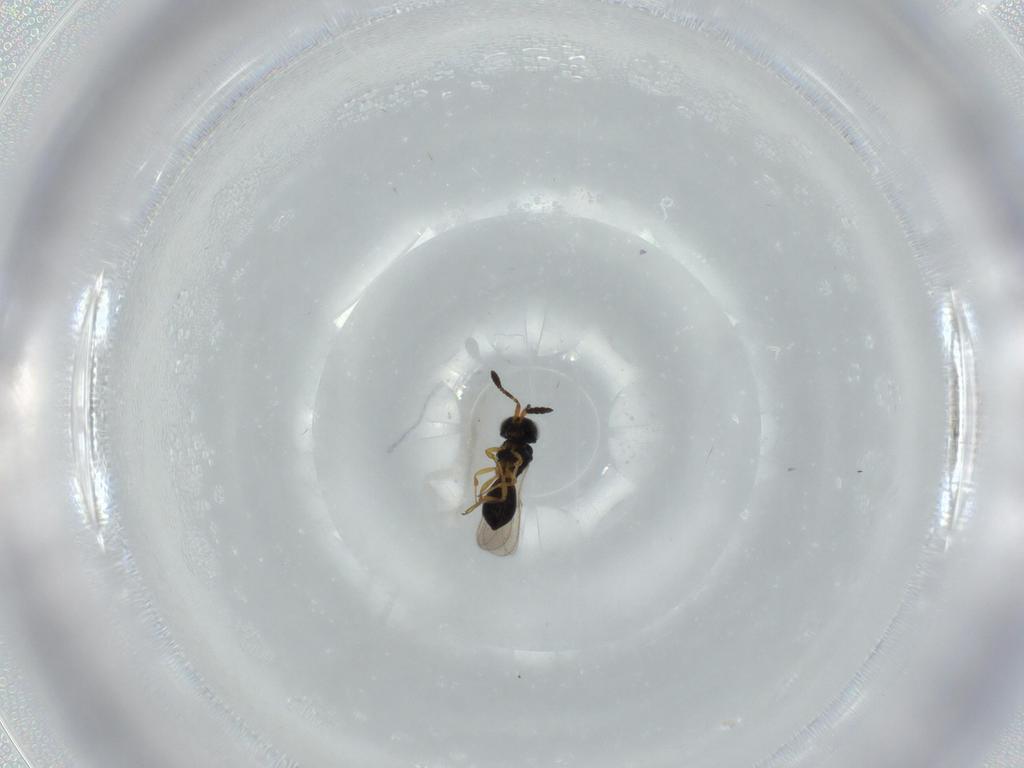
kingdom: Animalia
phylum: Arthropoda
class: Insecta
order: Hymenoptera
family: Scelionidae
